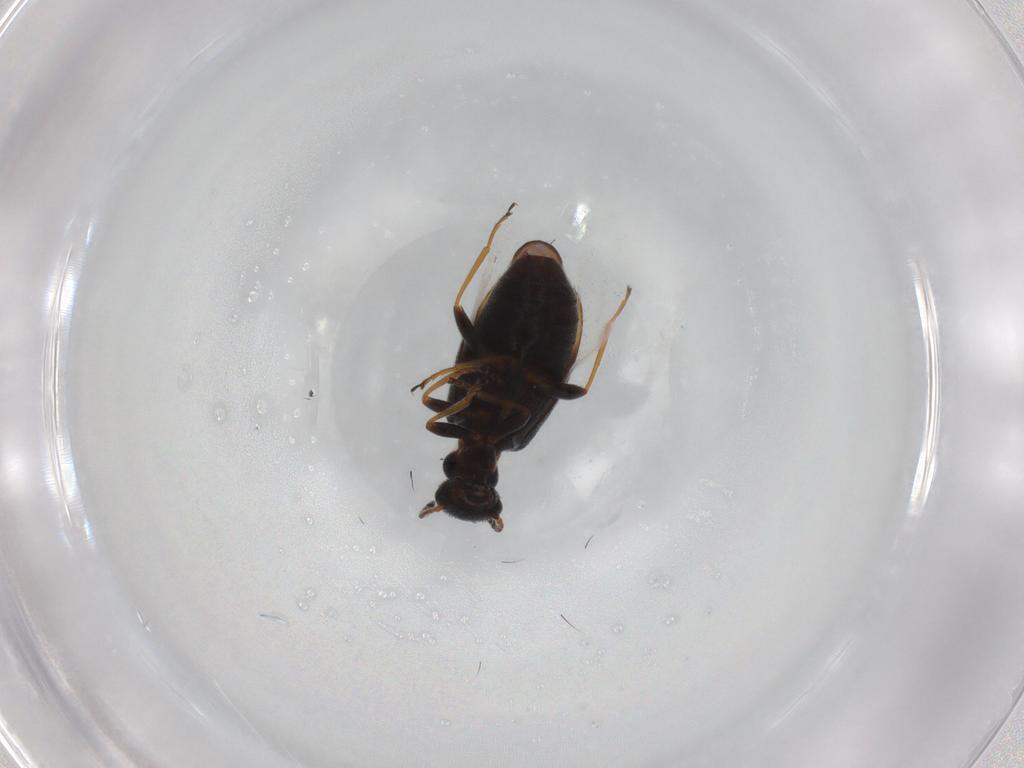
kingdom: Animalia
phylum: Arthropoda
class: Insecta
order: Coleoptera
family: Anthicidae
